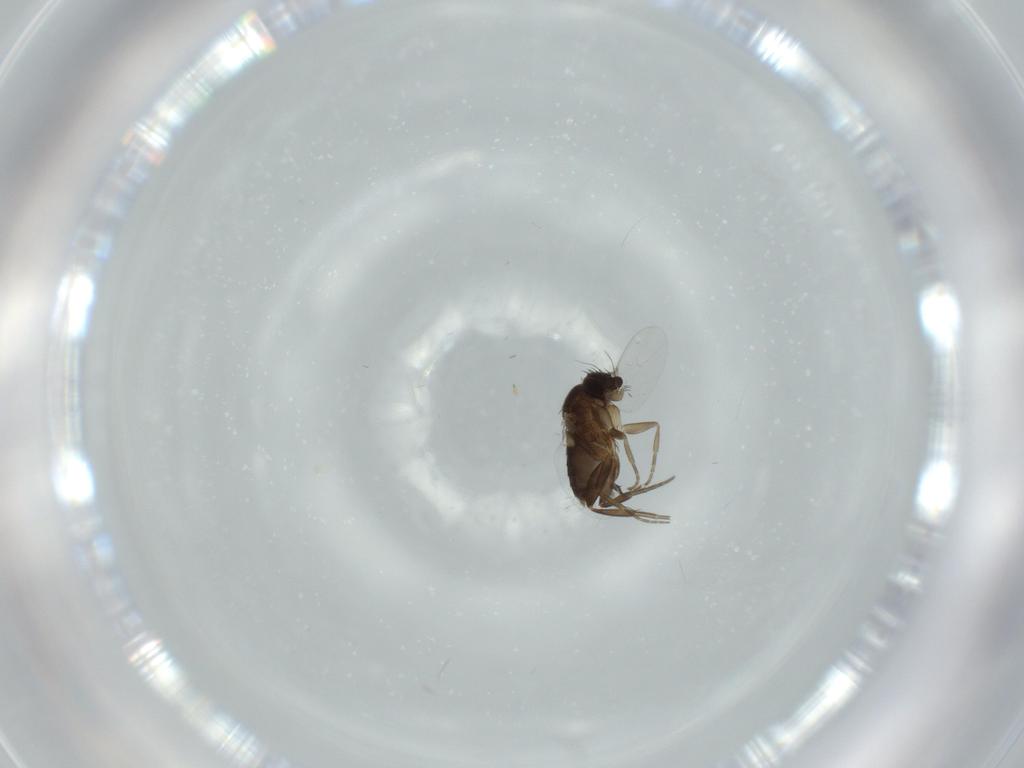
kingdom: Animalia
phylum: Arthropoda
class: Insecta
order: Diptera
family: Phoridae
